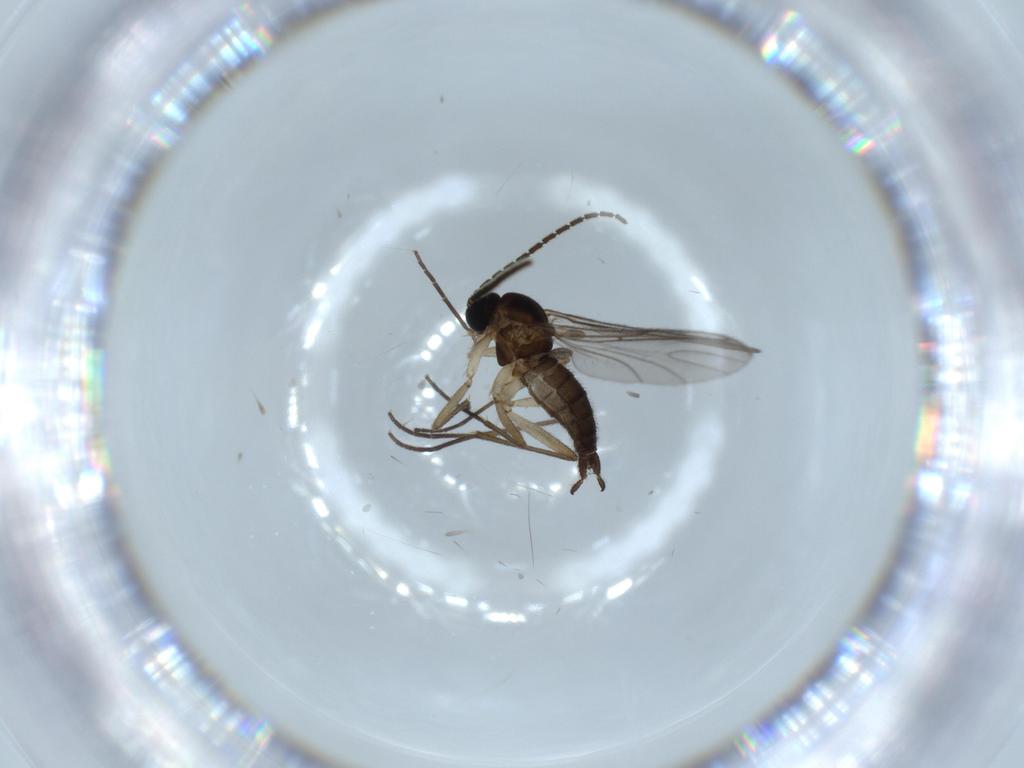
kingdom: Animalia
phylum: Arthropoda
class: Insecta
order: Diptera
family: Sciaridae
